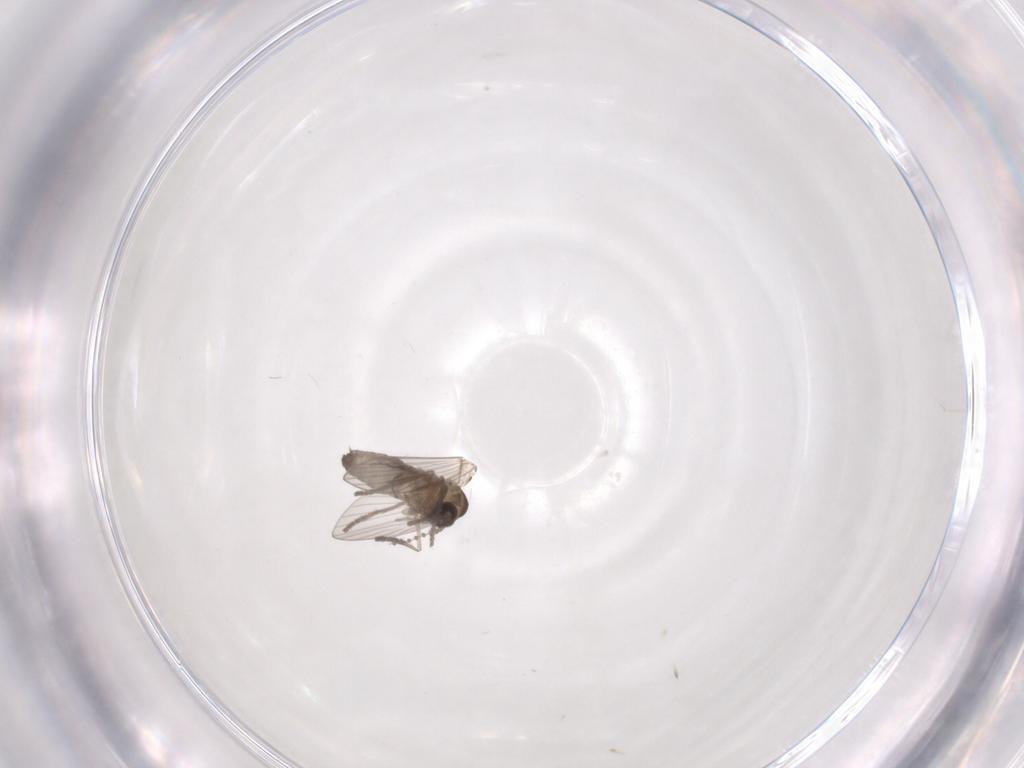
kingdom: Animalia
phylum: Arthropoda
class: Insecta
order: Diptera
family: Psychodidae
